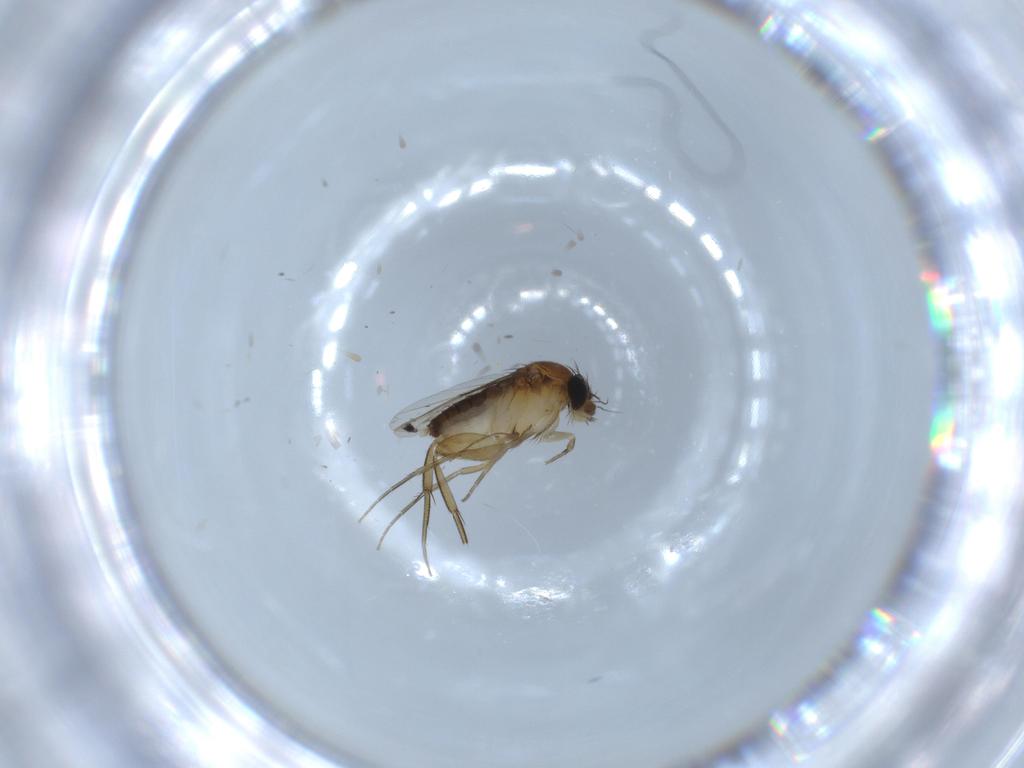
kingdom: Animalia
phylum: Arthropoda
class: Insecta
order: Diptera
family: Phoridae
